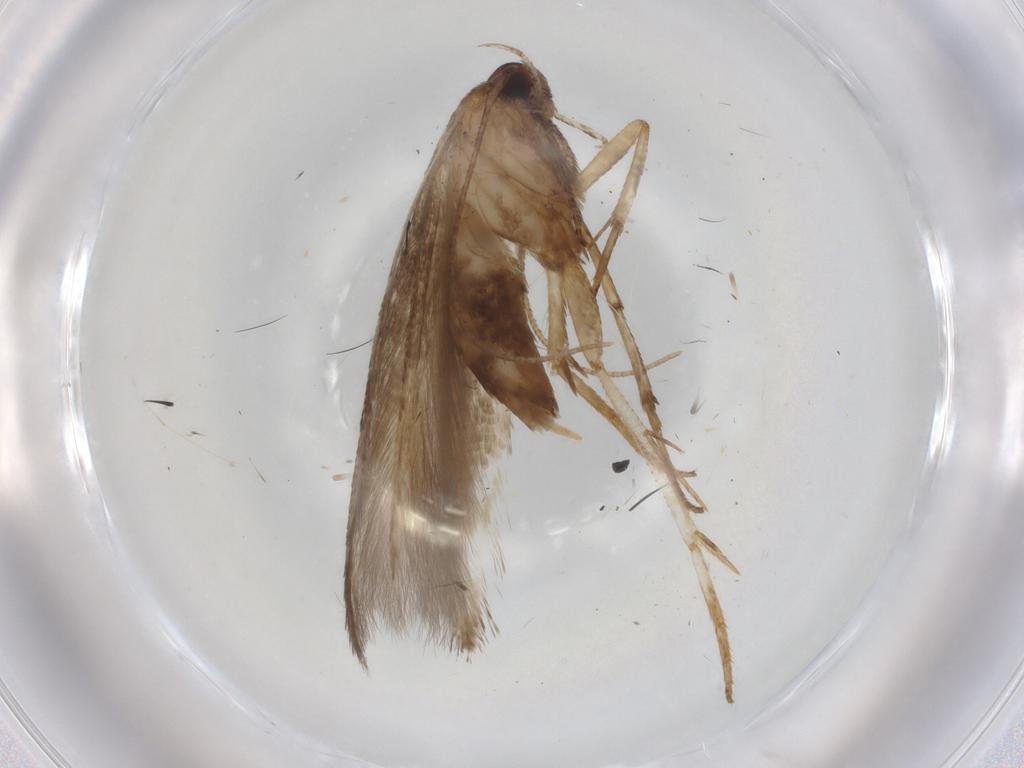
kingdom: Animalia
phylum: Arthropoda
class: Insecta
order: Lepidoptera
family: Cosmopterigidae
